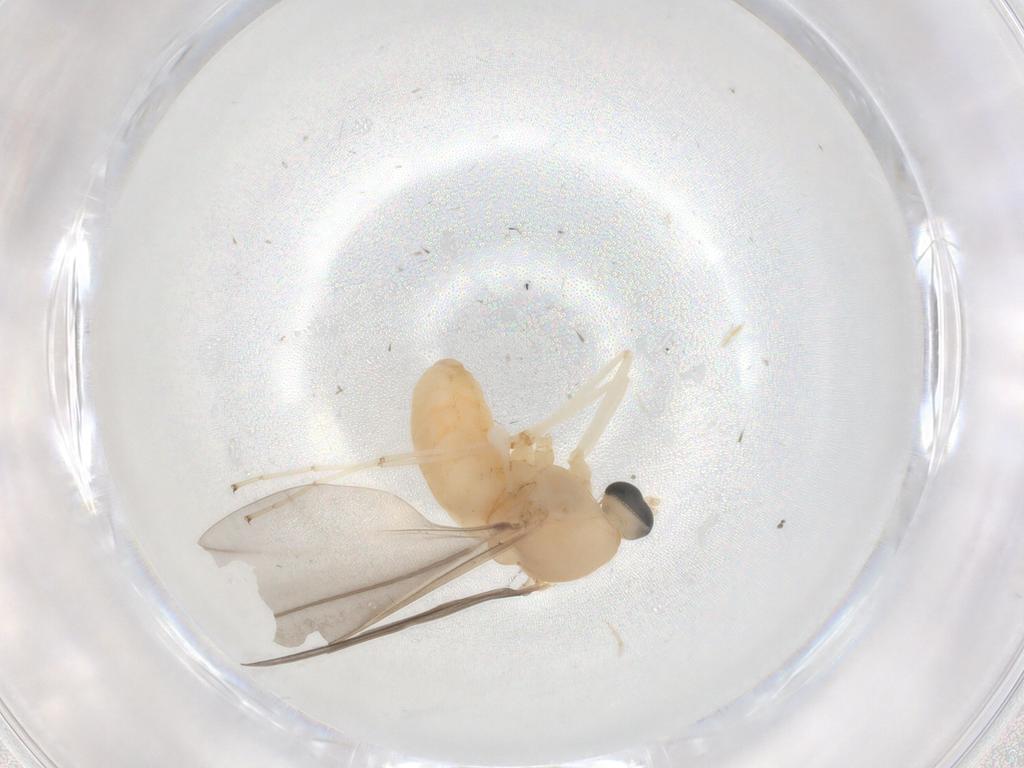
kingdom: Animalia
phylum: Arthropoda
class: Insecta
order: Diptera
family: Cecidomyiidae
